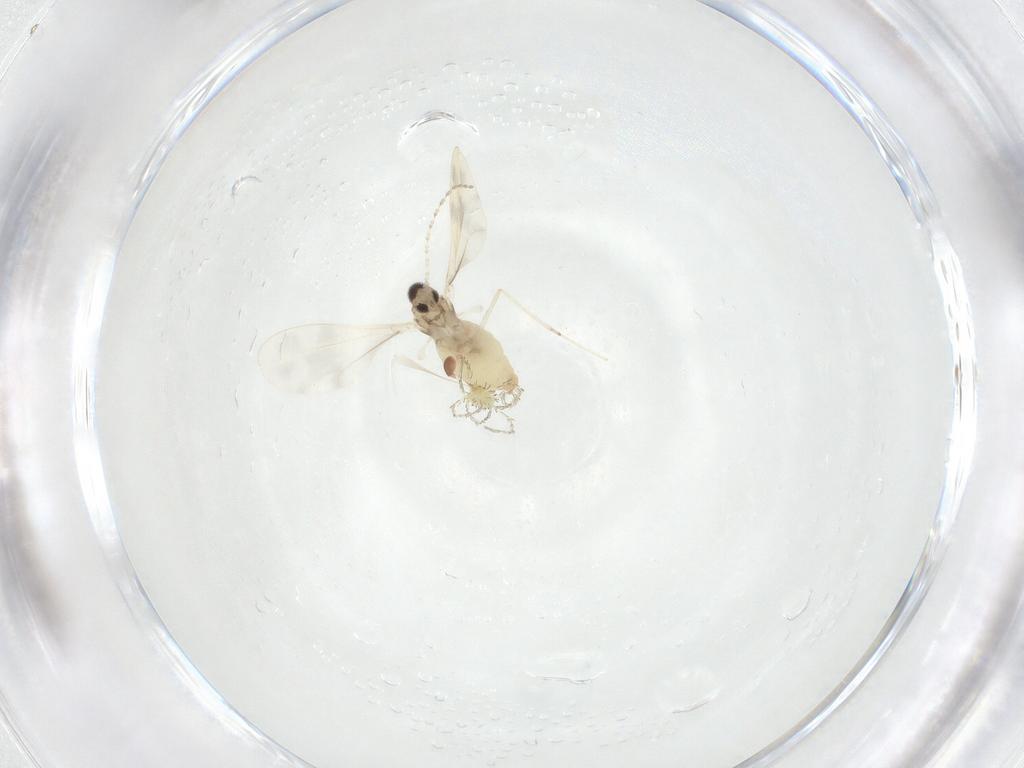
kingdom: Animalia
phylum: Arthropoda
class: Insecta
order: Diptera
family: Cecidomyiidae
